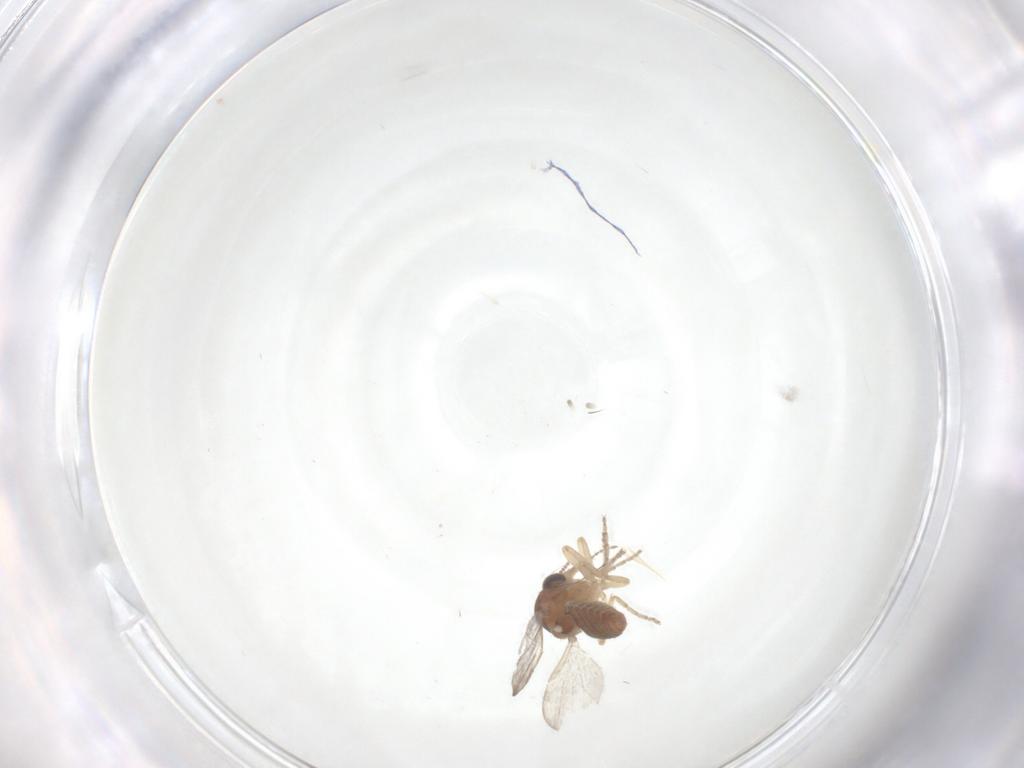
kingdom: Animalia
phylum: Arthropoda
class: Insecta
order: Diptera
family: Ceratopogonidae
